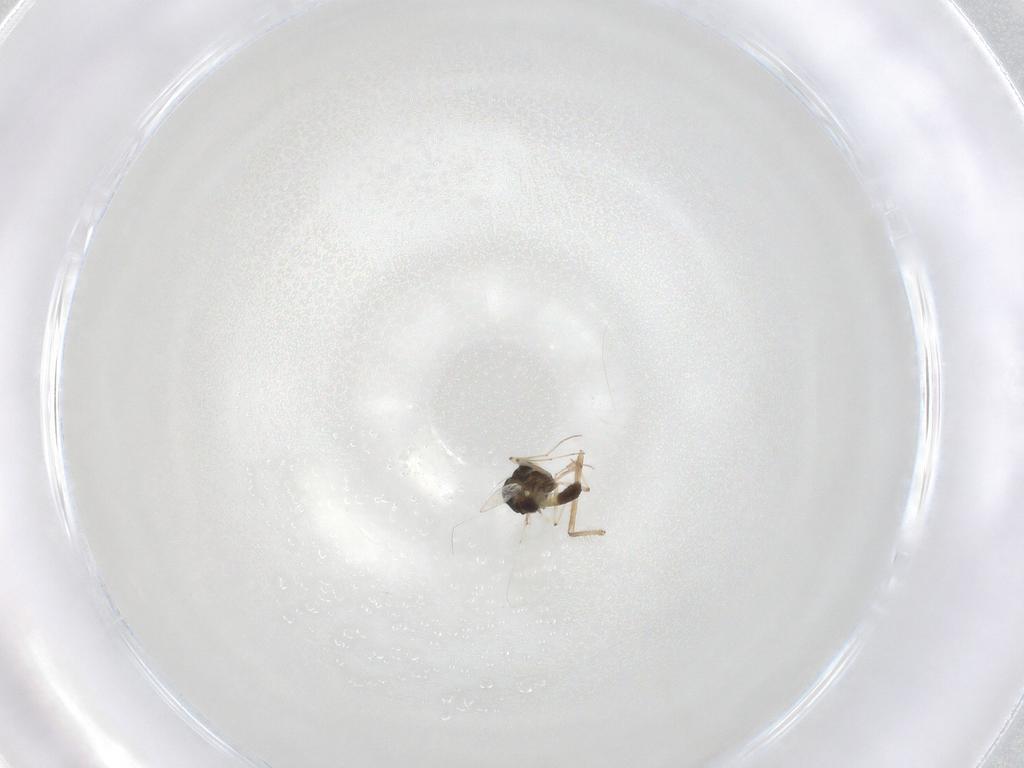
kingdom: Animalia
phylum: Arthropoda
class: Insecta
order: Diptera
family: Chironomidae
